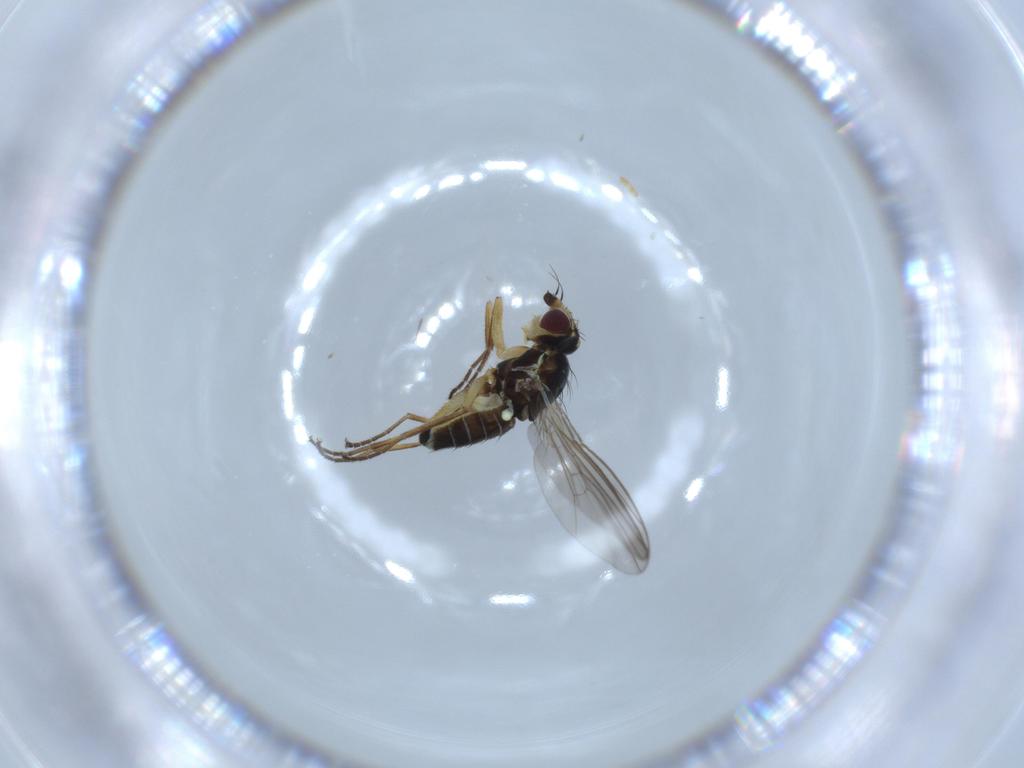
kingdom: Animalia
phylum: Arthropoda
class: Insecta
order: Diptera
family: Agromyzidae
